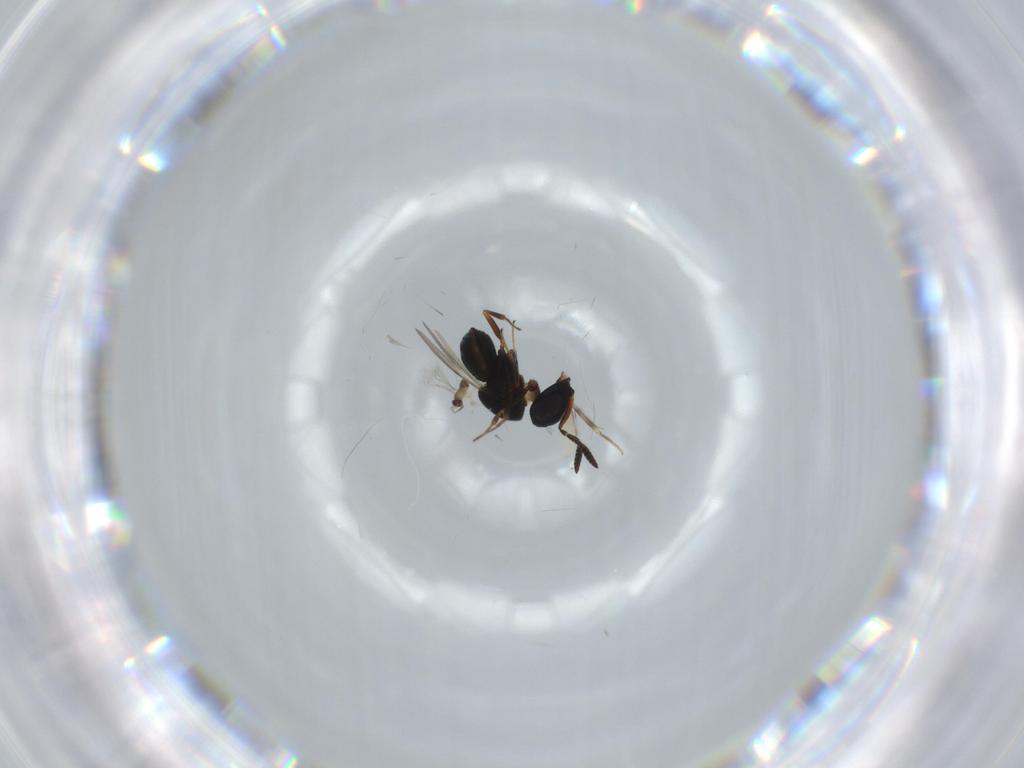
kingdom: Animalia
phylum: Arthropoda
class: Insecta
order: Hymenoptera
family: Scelionidae
